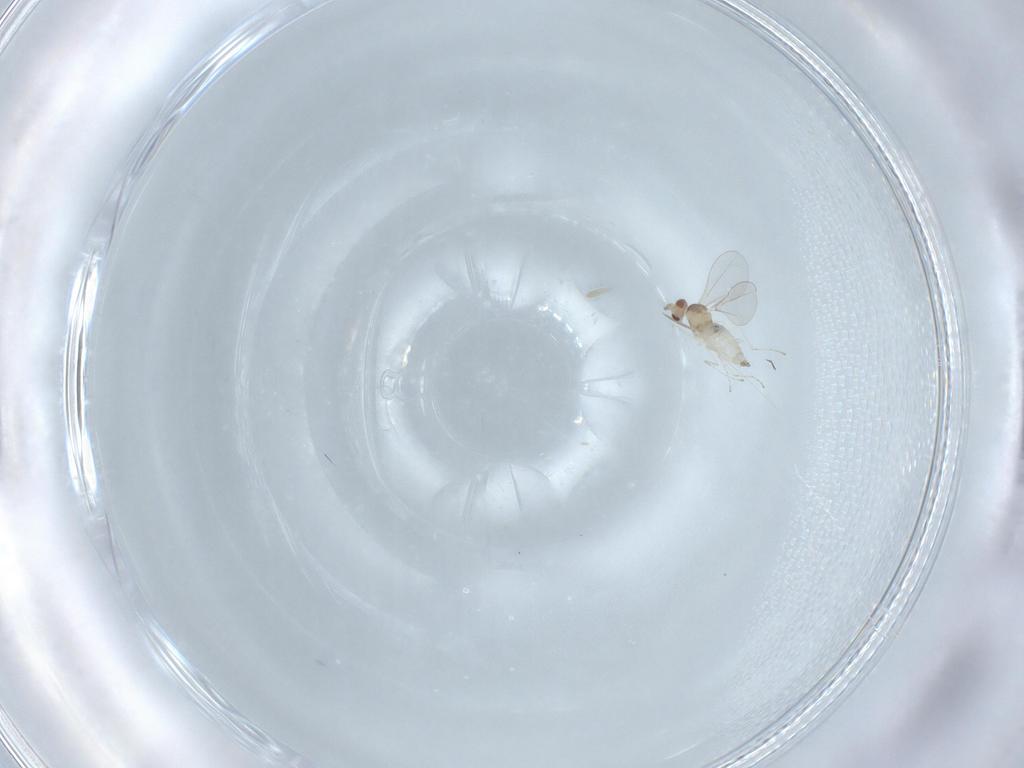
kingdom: Animalia
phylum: Arthropoda
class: Insecta
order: Diptera
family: Cecidomyiidae
